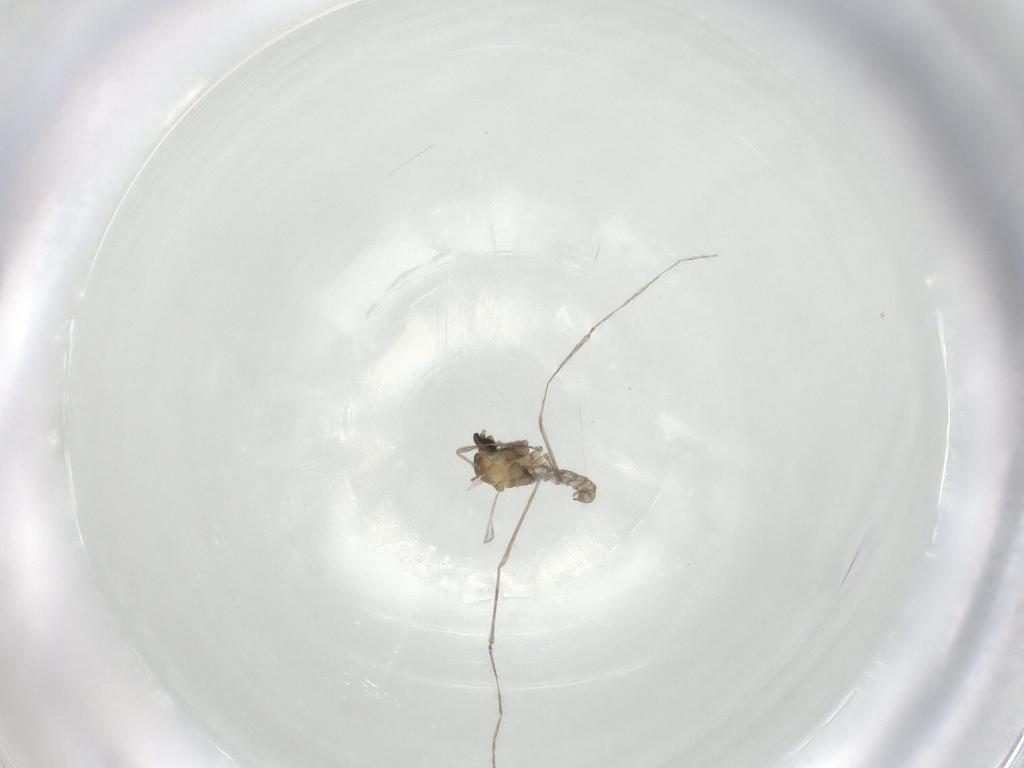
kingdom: Animalia
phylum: Arthropoda
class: Insecta
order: Diptera
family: Cecidomyiidae
